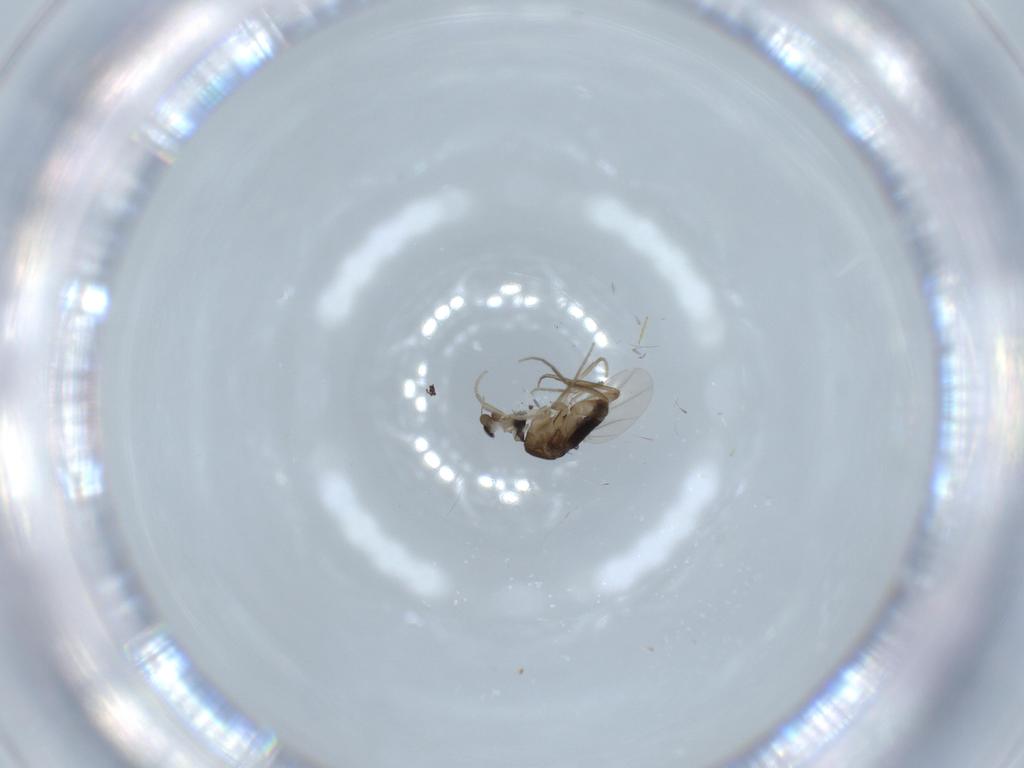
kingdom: Animalia
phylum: Arthropoda
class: Insecta
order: Diptera
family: Phoridae
